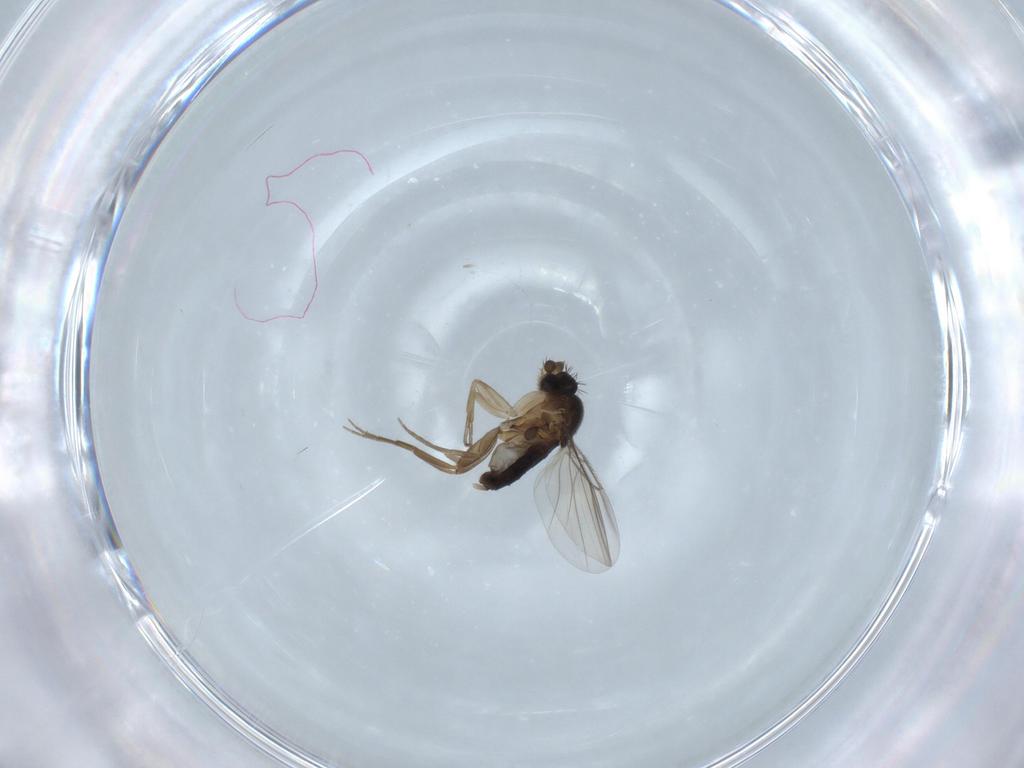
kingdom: Animalia
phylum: Arthropoda
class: Insecta
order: Diptera
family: Phoridae
